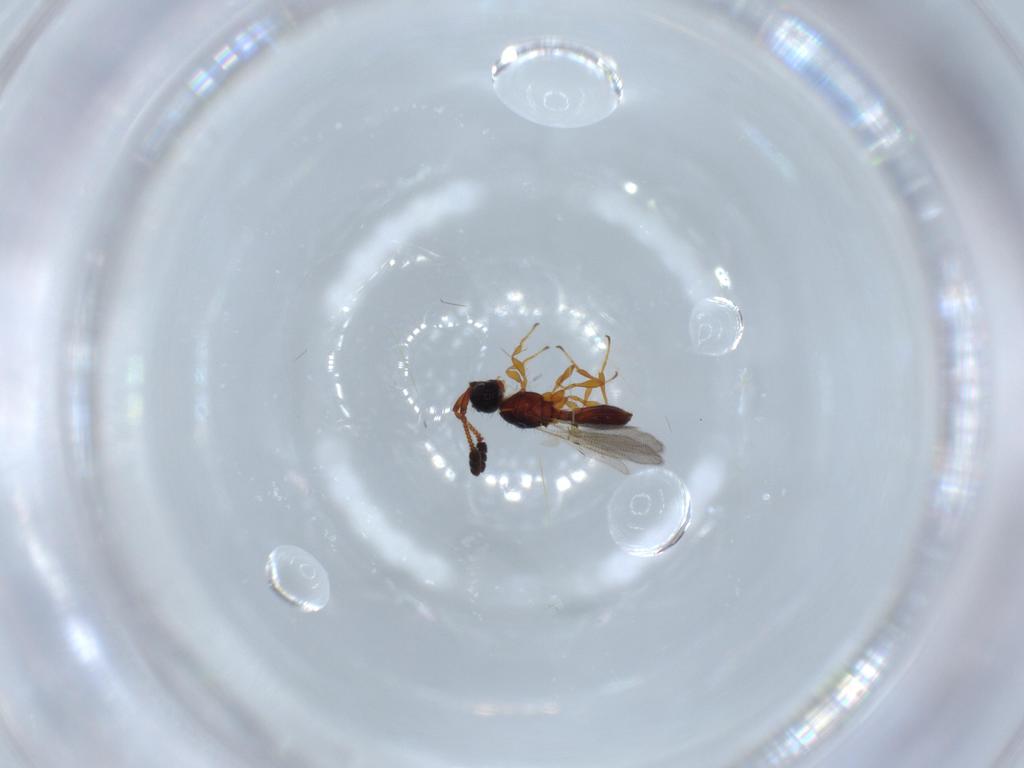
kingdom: Animalia
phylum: Arthropoda
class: Insecta
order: Hymenoptera
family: Diapriidae
